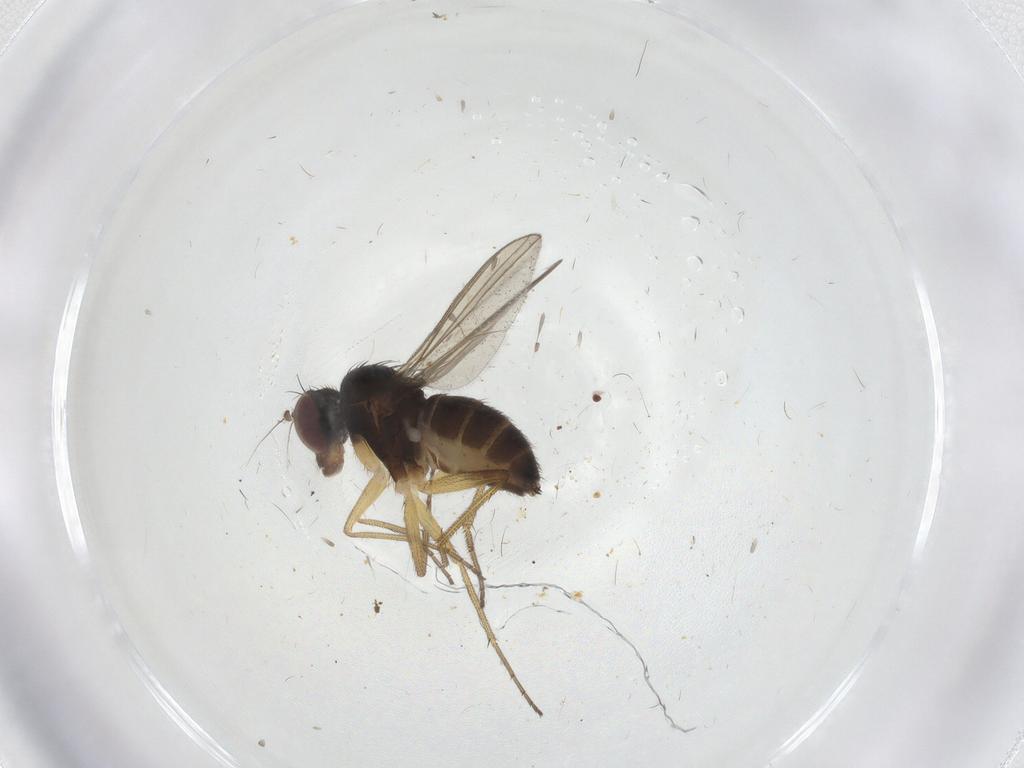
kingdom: Animalia
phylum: Arthropoda
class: Insecta
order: Diptera
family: Dolichopodidae
